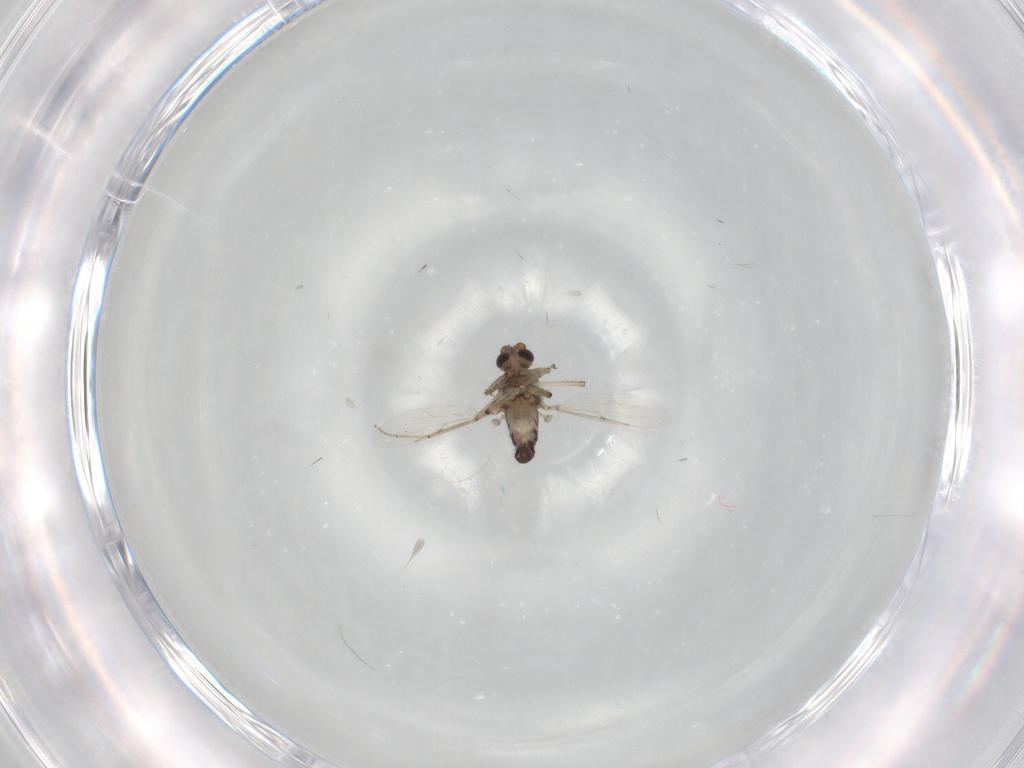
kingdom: Animalia
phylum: Arthropoda
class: Insecta
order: Diptera
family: Ceratopogonidae
